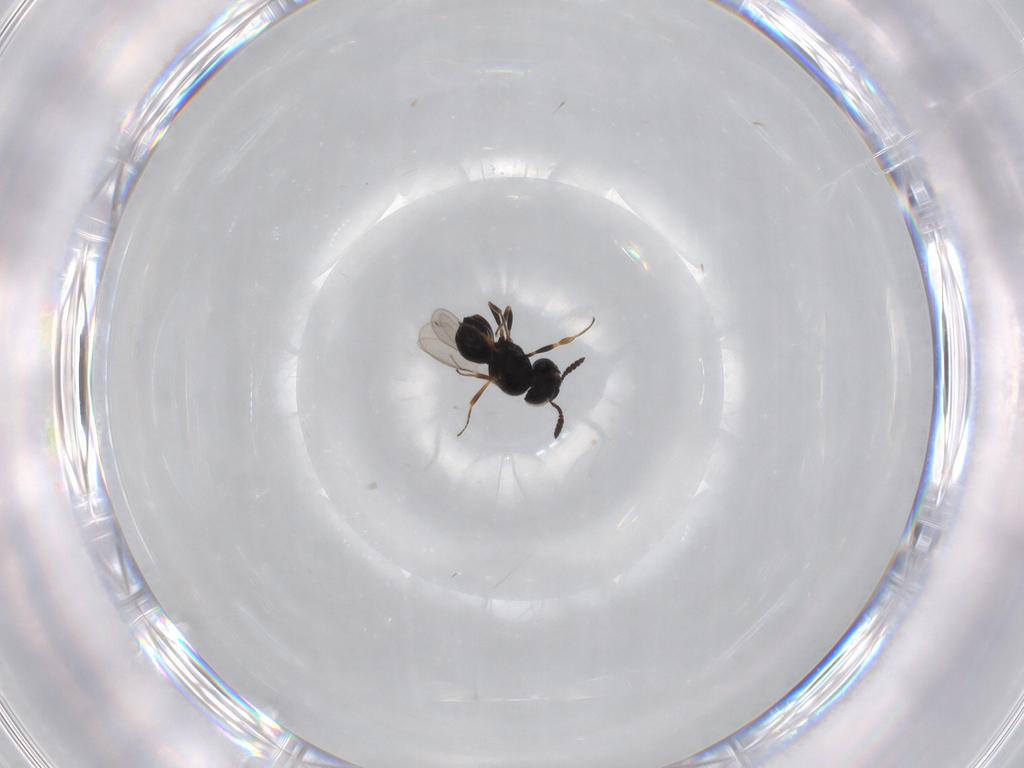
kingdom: Animalia
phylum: Arthropoda
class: Insecta
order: Hymenoptera
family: Scelionidae
